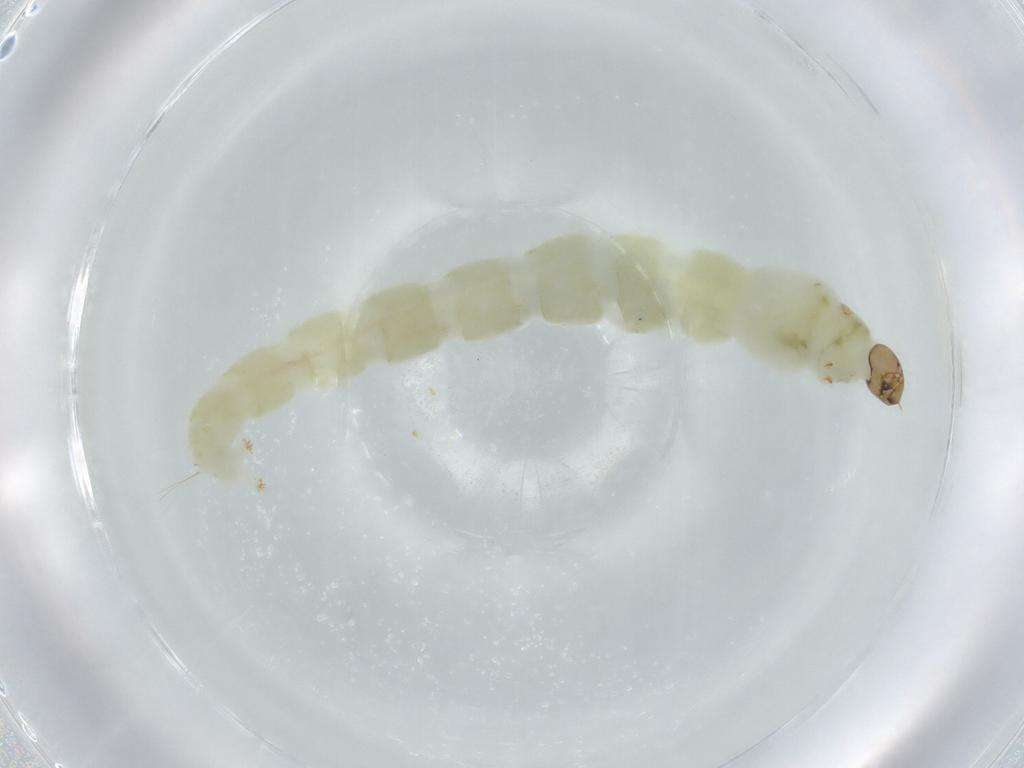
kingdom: Animalia
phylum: Arthropoda
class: Insecta
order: Diptera
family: Chironomidae
